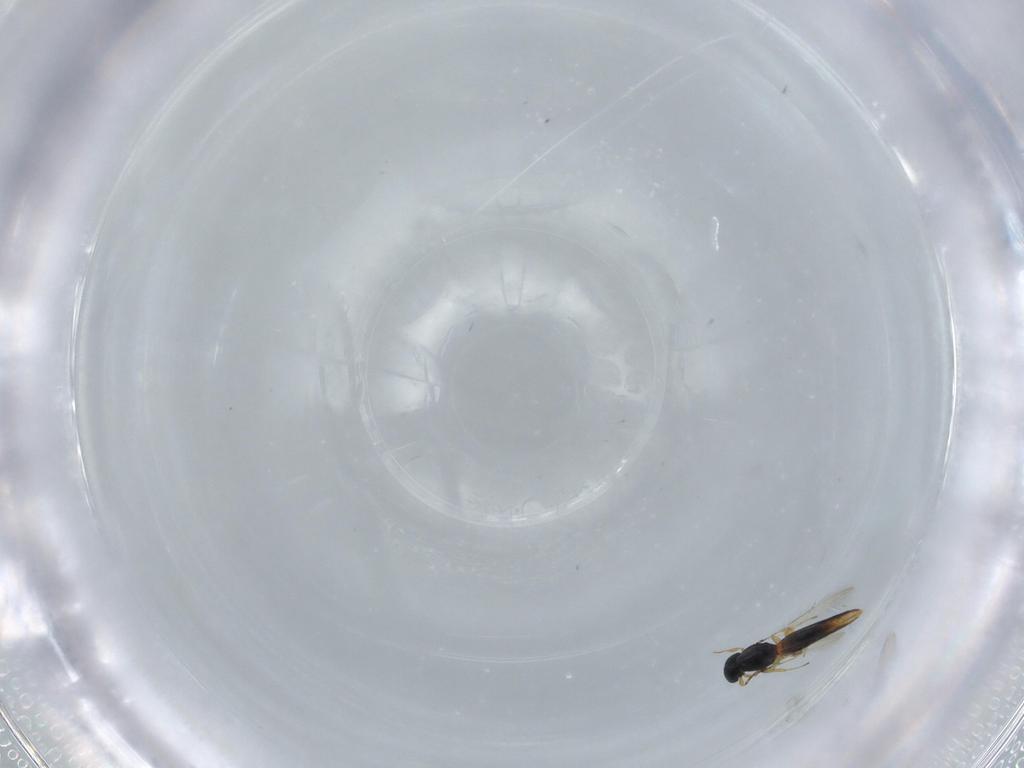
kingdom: Animalia
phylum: Arthropoda
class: Insecta
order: Hymenoptera
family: Scelionidae
